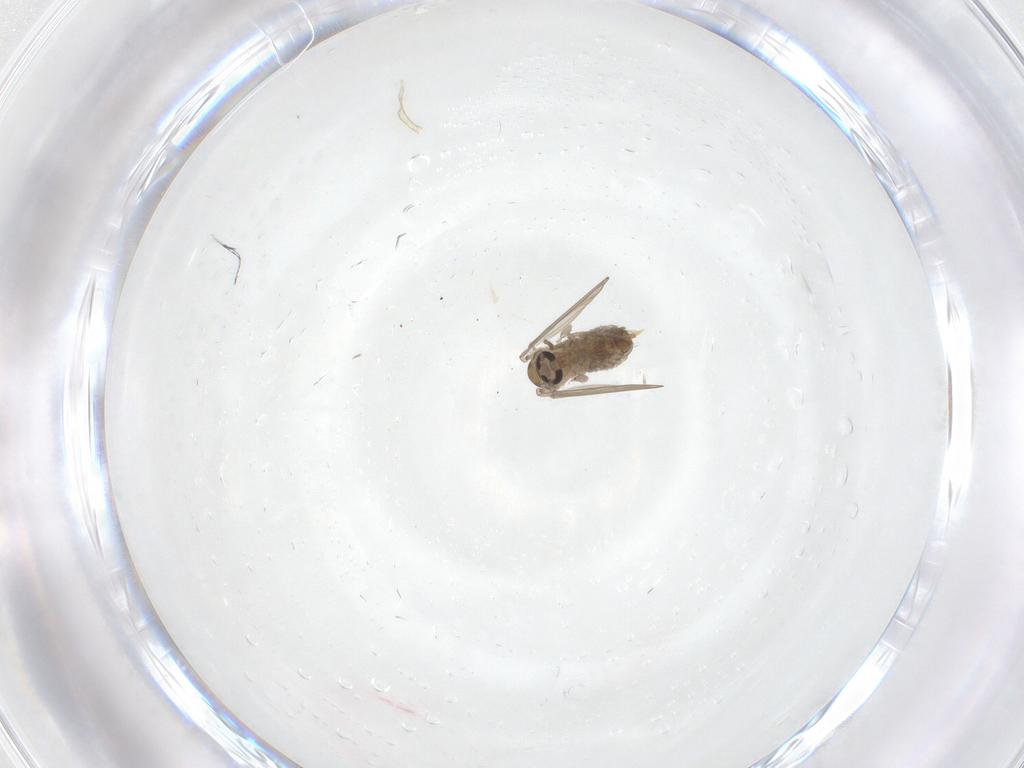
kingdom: Animalia
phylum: Arthropoda
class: Insecta
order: Diptera
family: Psychodidae
